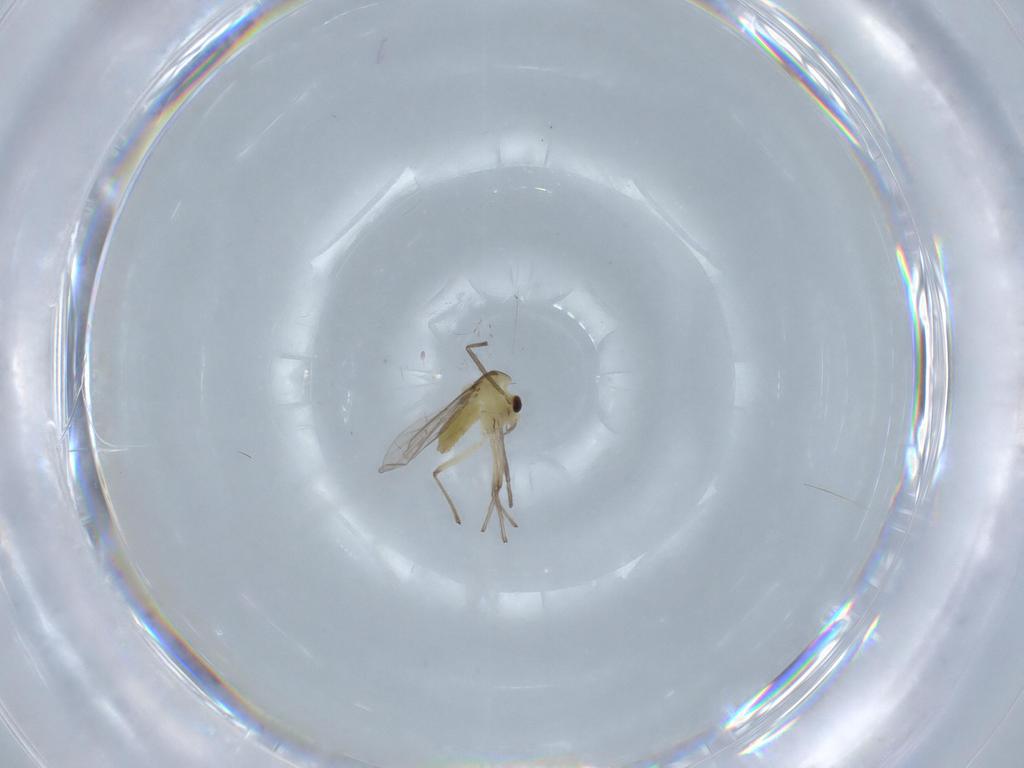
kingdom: Animalia
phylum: Arthropoda
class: Insecta
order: Diptera
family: Chironomidae
